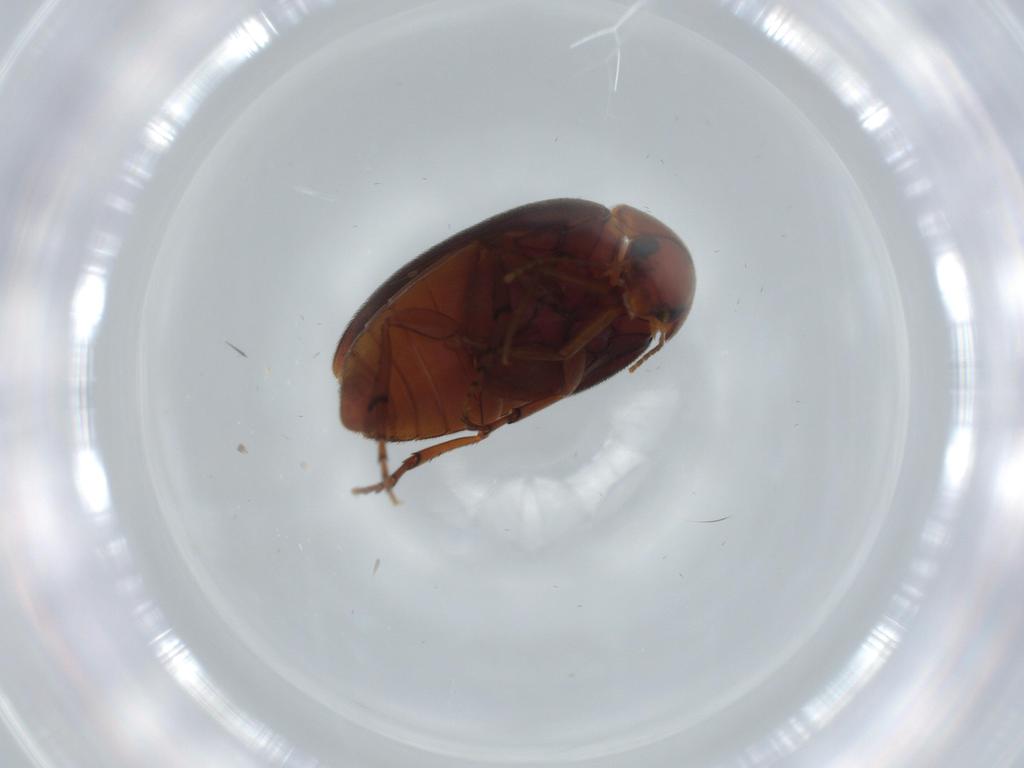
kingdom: Animalia
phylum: Arthropoda
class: Insecta
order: Coleoptera
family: Eucinetidae
